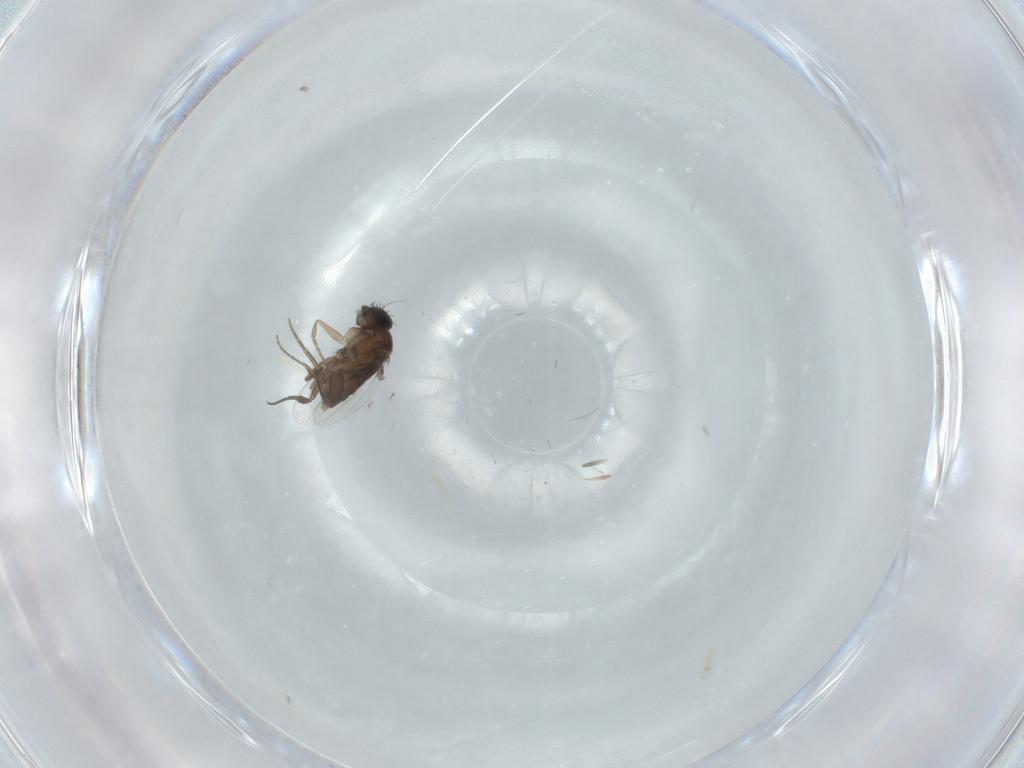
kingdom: Animalia
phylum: Arthropoda
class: Insecta
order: Diptera
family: Phoridae
